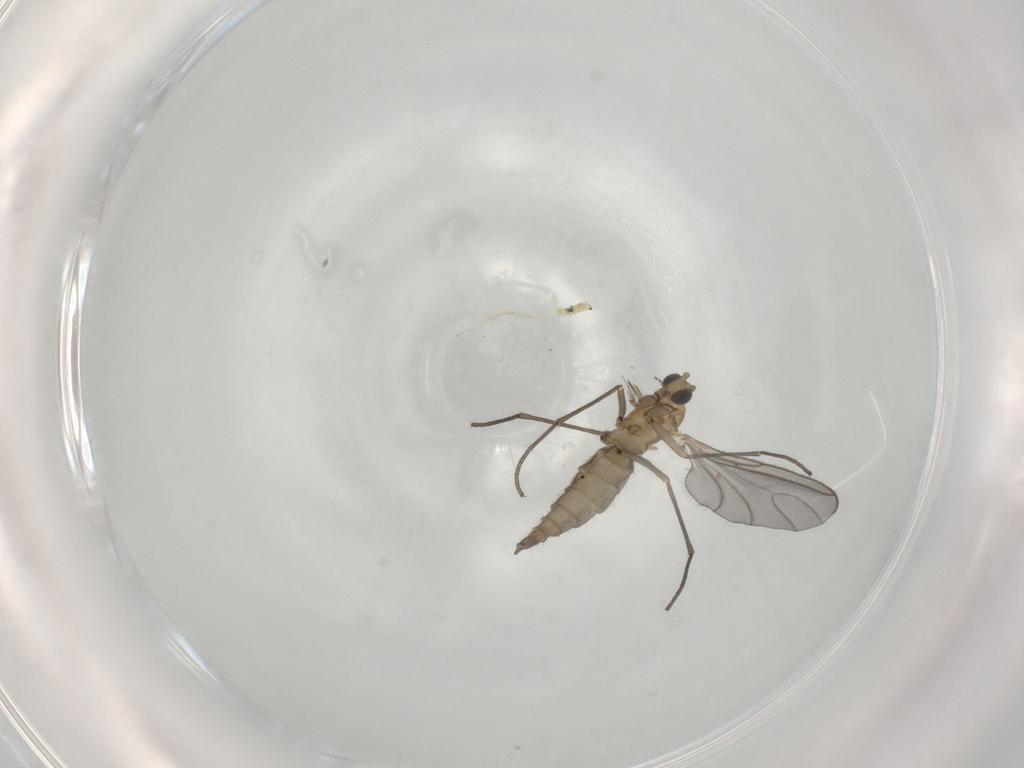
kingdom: Animalia
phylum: Arthropoda
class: Insecta
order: Diptera
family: Sciaridae
